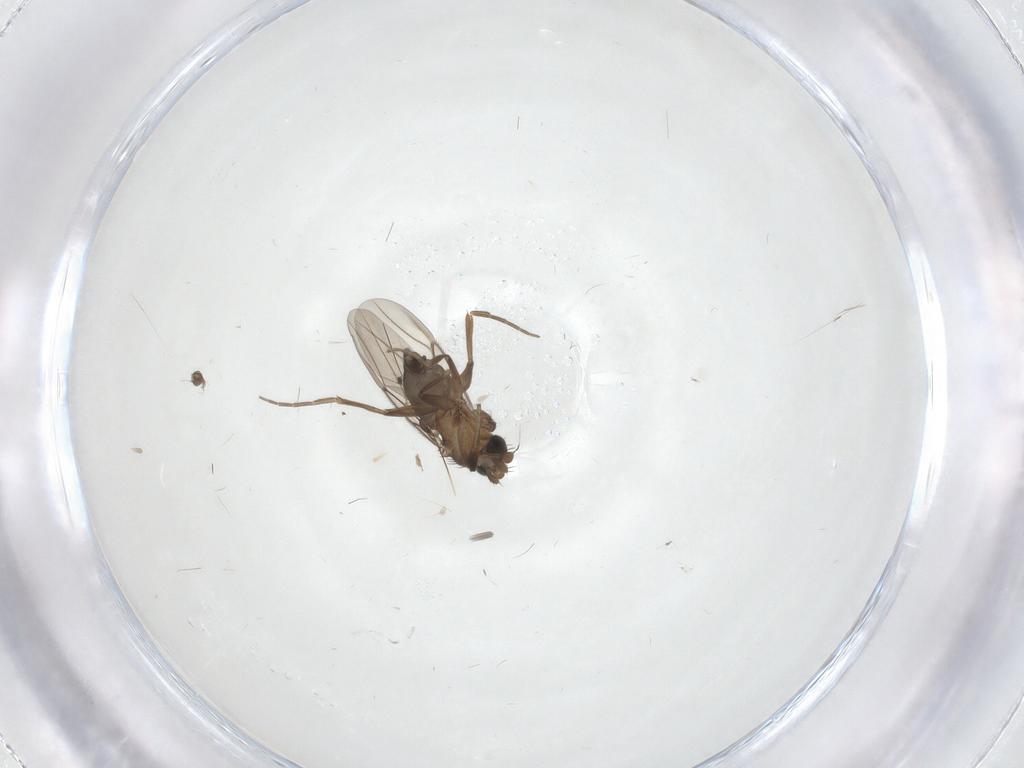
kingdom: Animalia
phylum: Arthropoda
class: Insecta
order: Diptera
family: Phoridae
